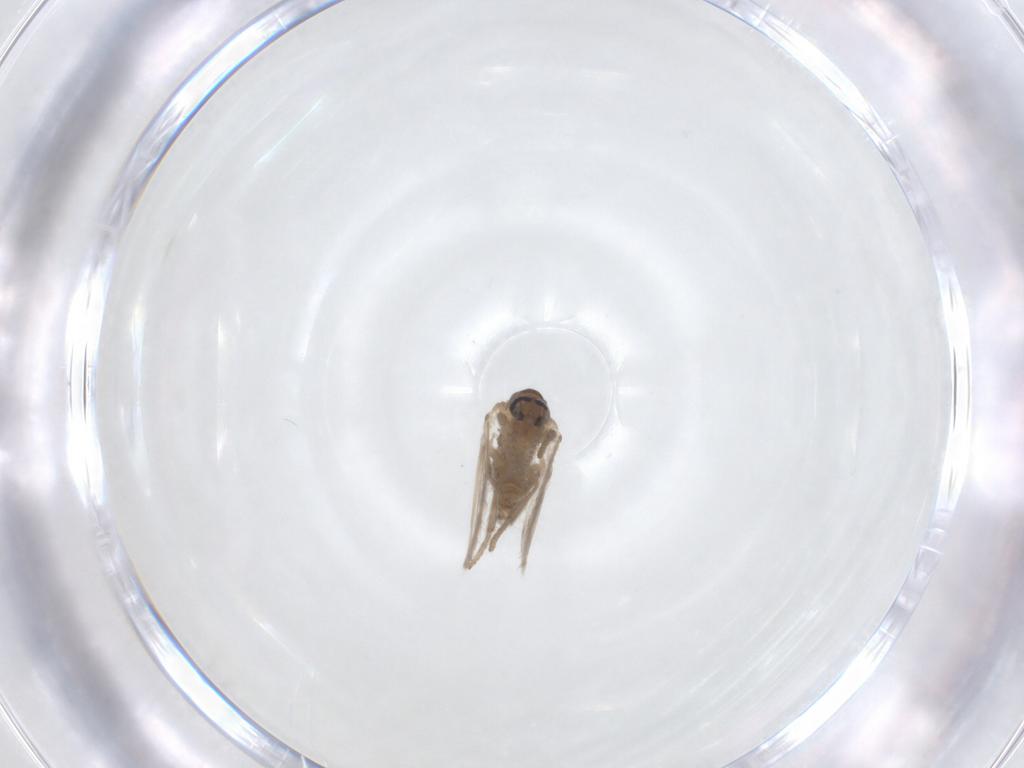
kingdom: Animalia
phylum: Arthropoda
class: Insecta
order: Diptera
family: Psychodidae
